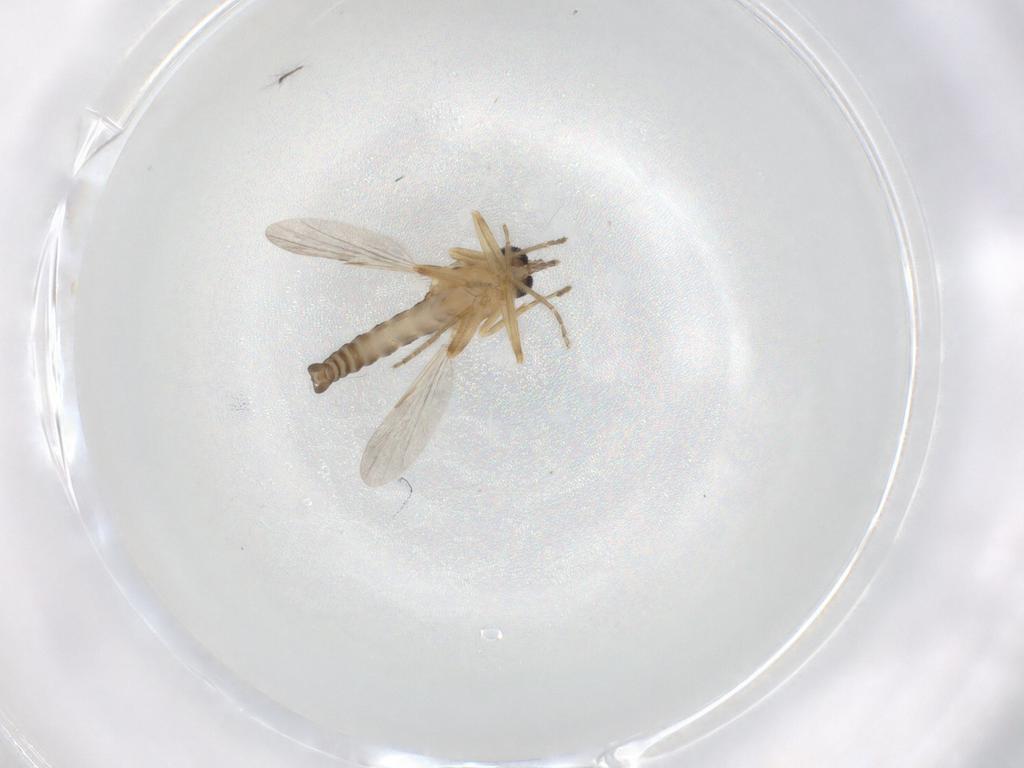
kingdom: Animalia
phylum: Arthropoda
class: Insecta
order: Diptera
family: Ceratopogonidae
